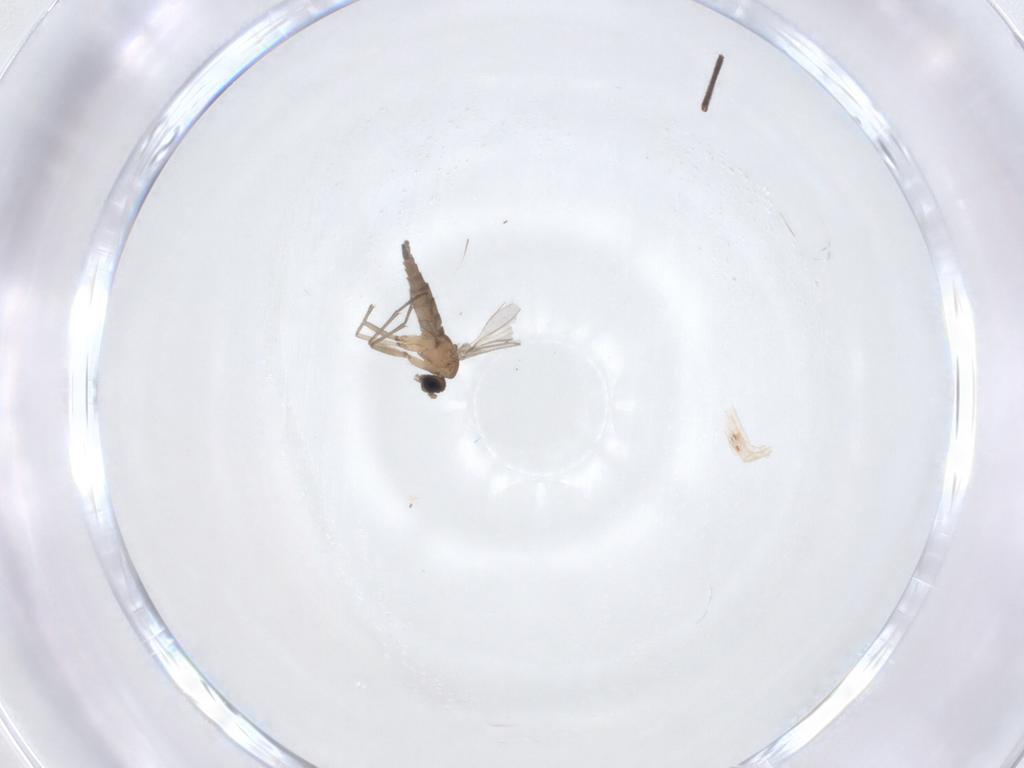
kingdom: Animalia
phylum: Arthropoda
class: Insecta
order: Diptera
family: Sciaridae
